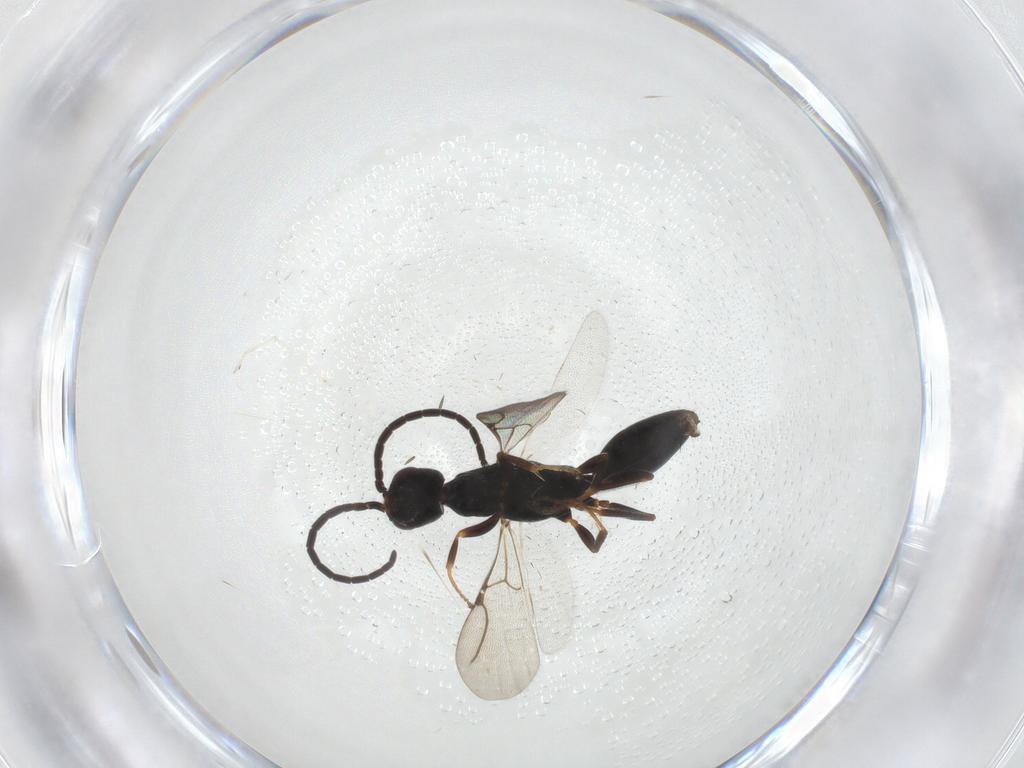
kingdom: Animalia
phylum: Arthropoda
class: Insecta
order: Hymenoptera
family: Bethylidae
